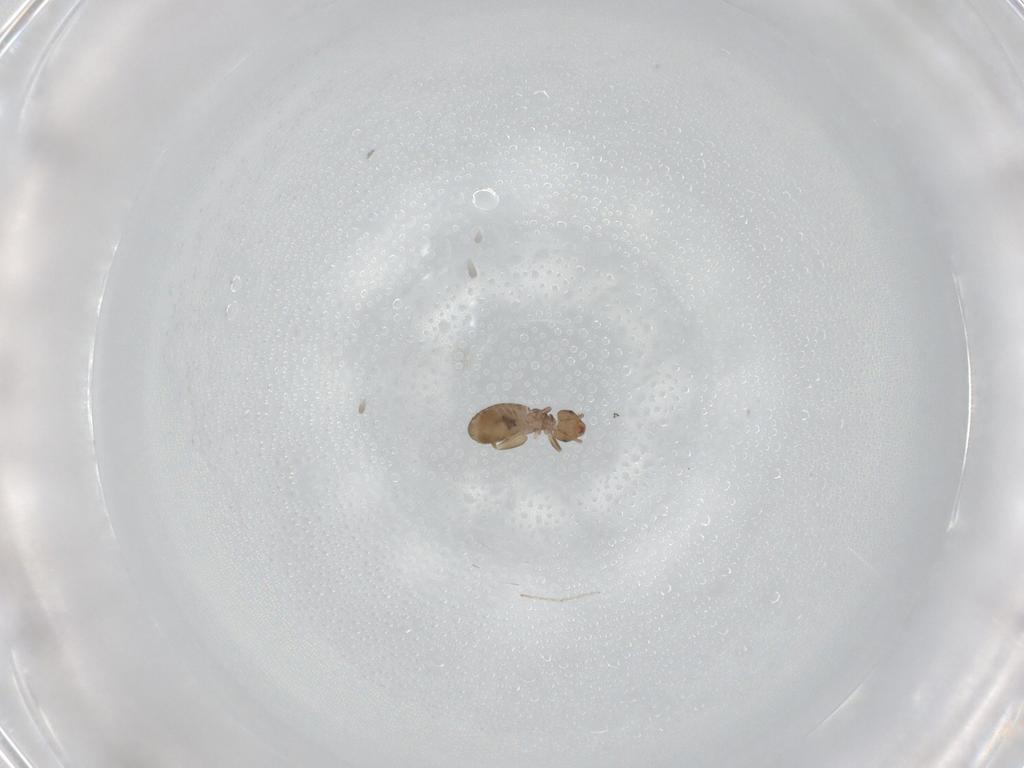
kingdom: Animalia
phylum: Arthropoda
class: Insecta
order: Psocodea
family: Liposcelididae
